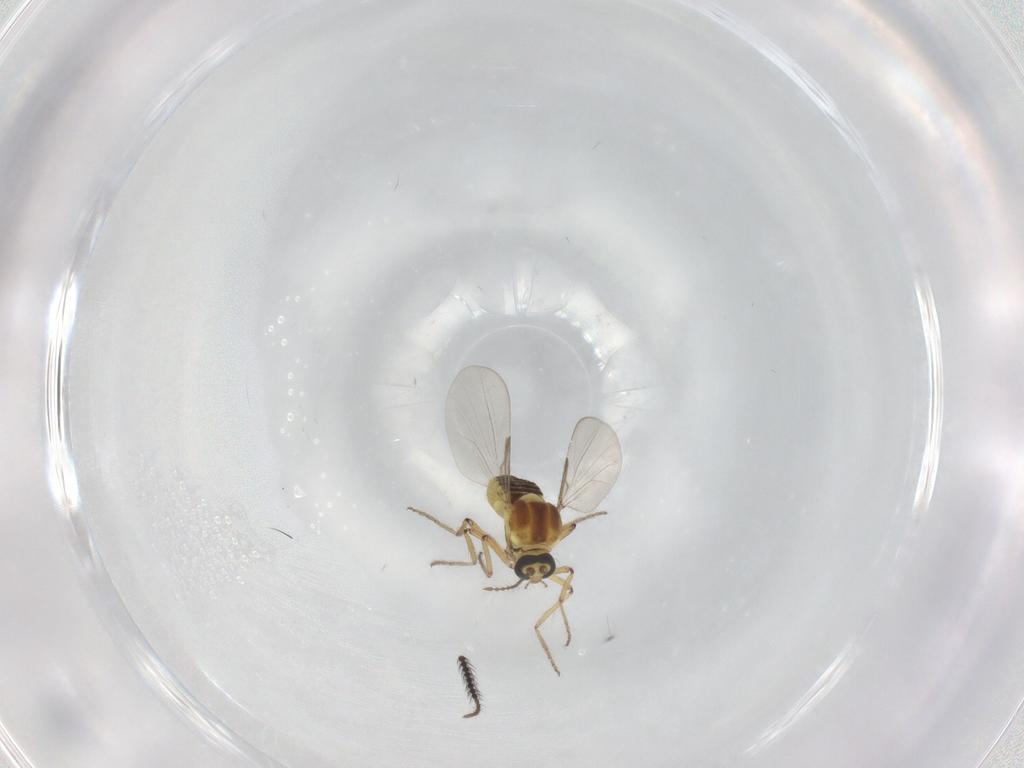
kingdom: Animalia
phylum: Arthropoda
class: Insecta
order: Diptera
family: Ceratopogonidae
